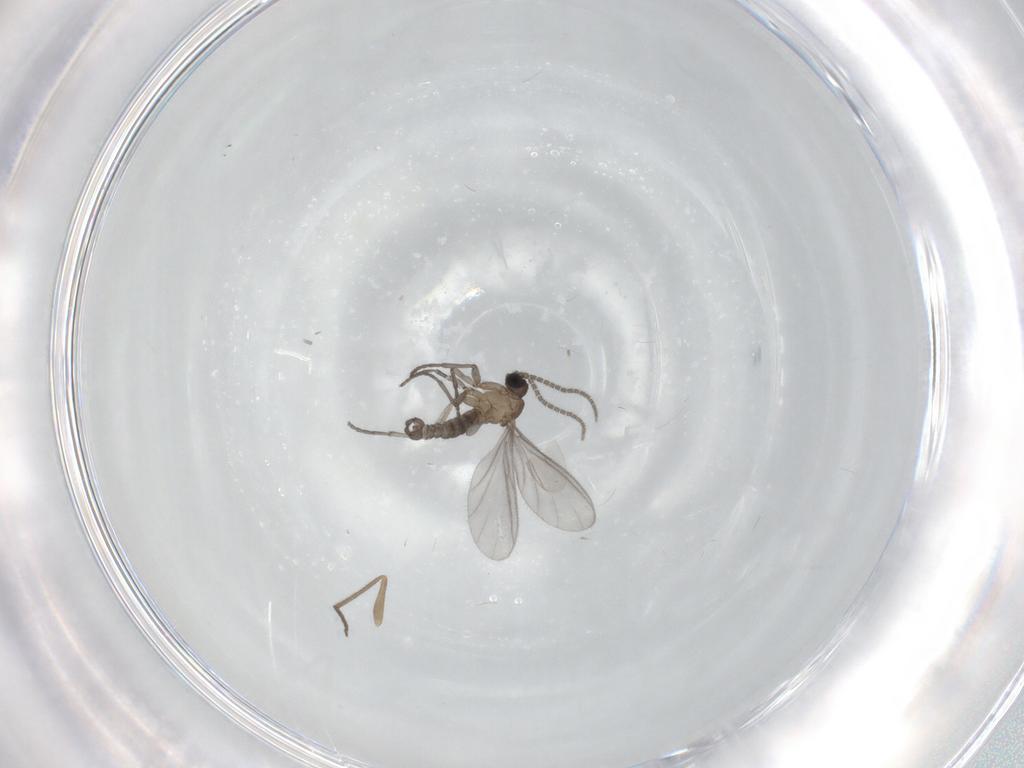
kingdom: Animalia
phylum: Arthropoda
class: Insecta
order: Diptera
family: Sciaridae
